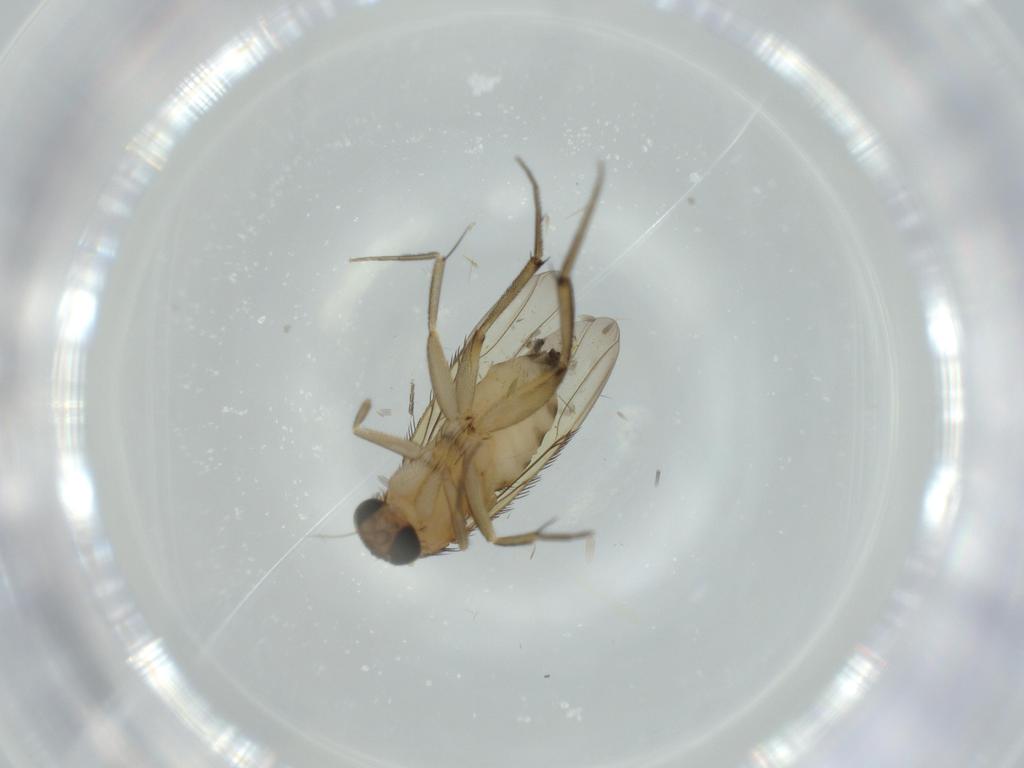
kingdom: Animalia
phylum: Arthropoda
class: Insecta
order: Diptera
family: Phoridae
